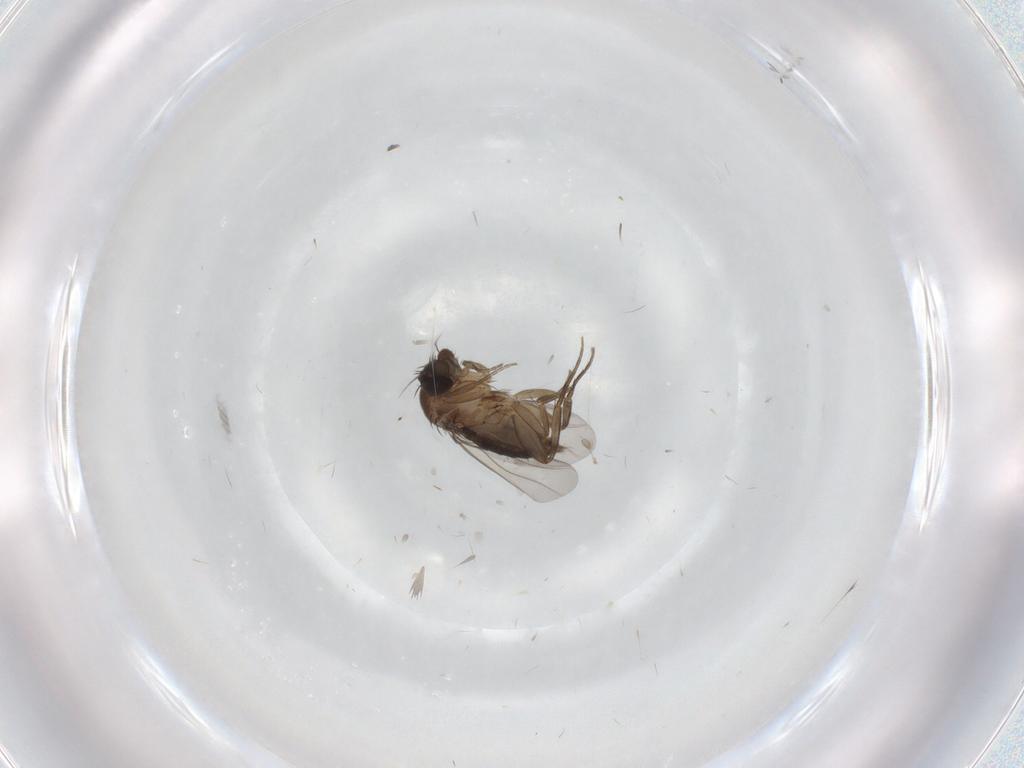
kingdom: Animalia
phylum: Arthropoda
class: Insecta
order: Diptera
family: Phoridae
